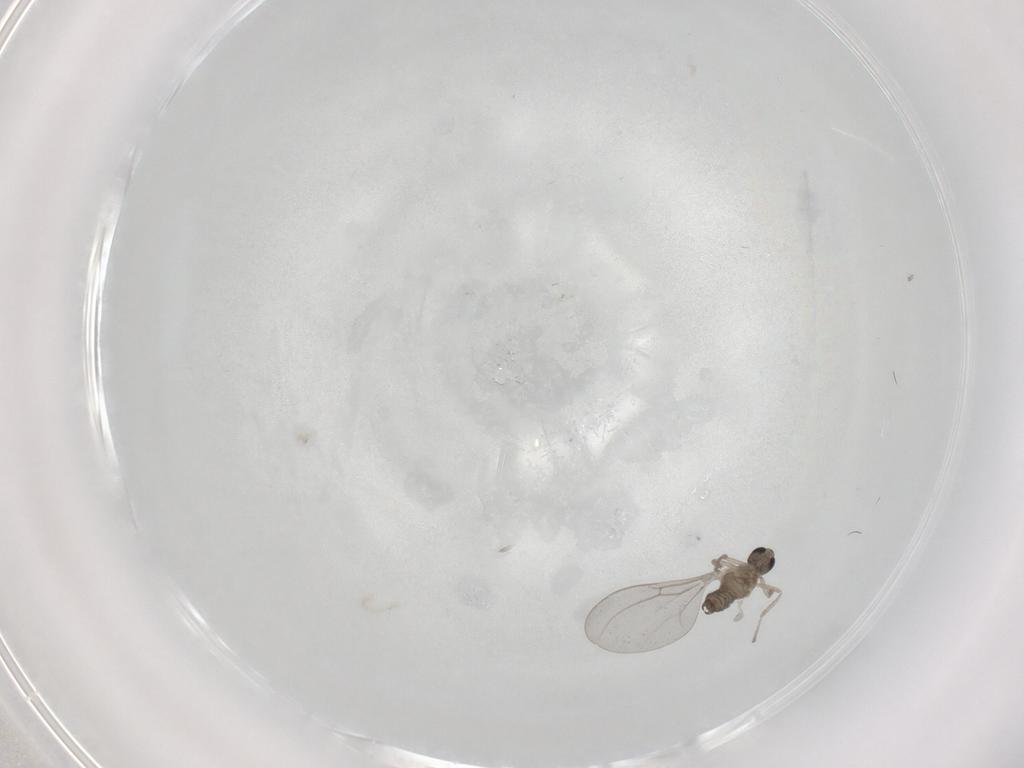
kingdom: Animalia
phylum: Arthropoda
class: Insecta
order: Diptera
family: Cecidomyiidae
